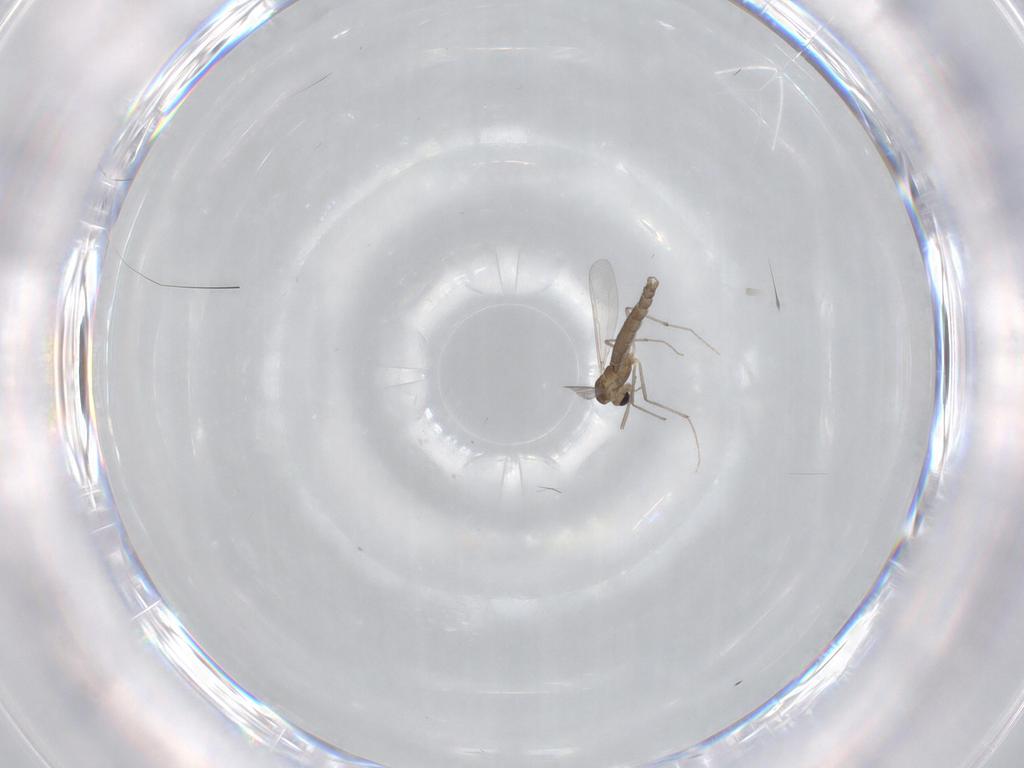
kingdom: Animalia
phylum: Arthropoda
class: Insecta
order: Diptera
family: Chironomidae
